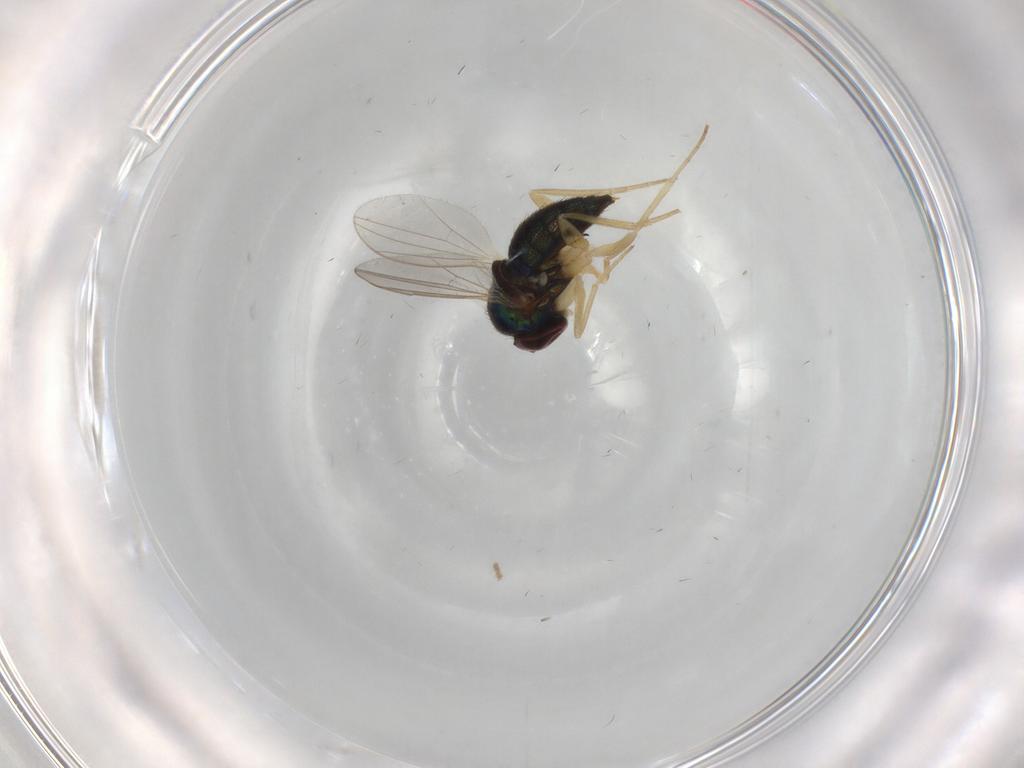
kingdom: Animalia
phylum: Arthropoda
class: Insecta
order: Diptera
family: Dolichopodidae
